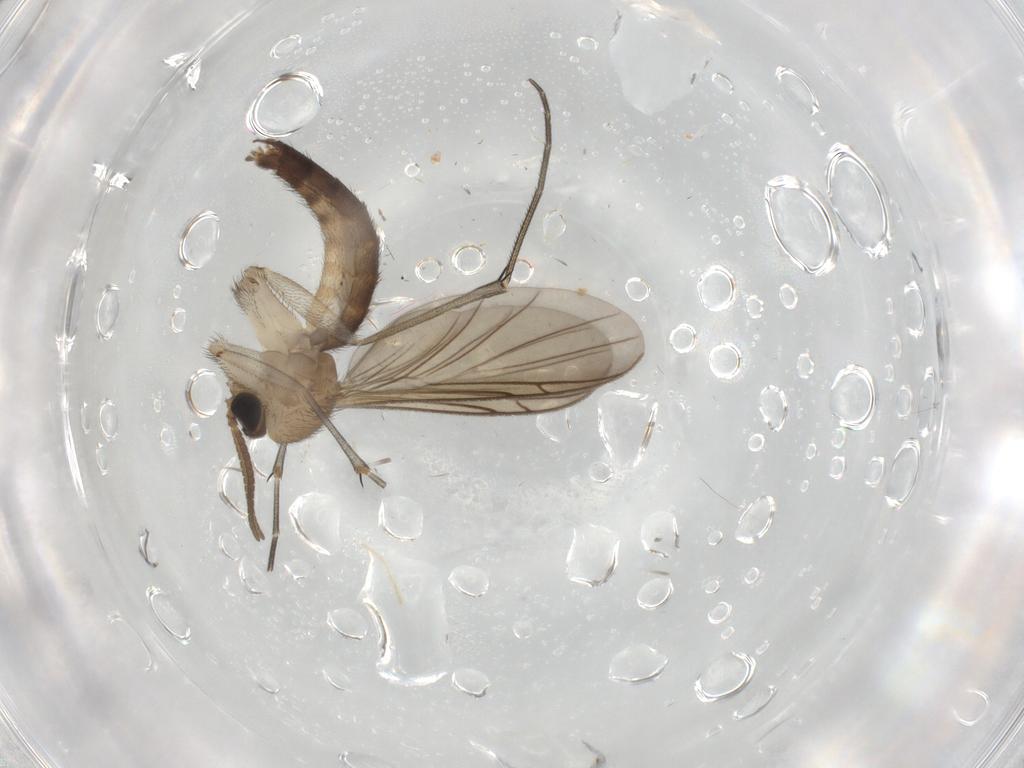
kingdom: Animalia
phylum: Arthropoda
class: Insecta
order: Diptera
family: Keroplatidae
